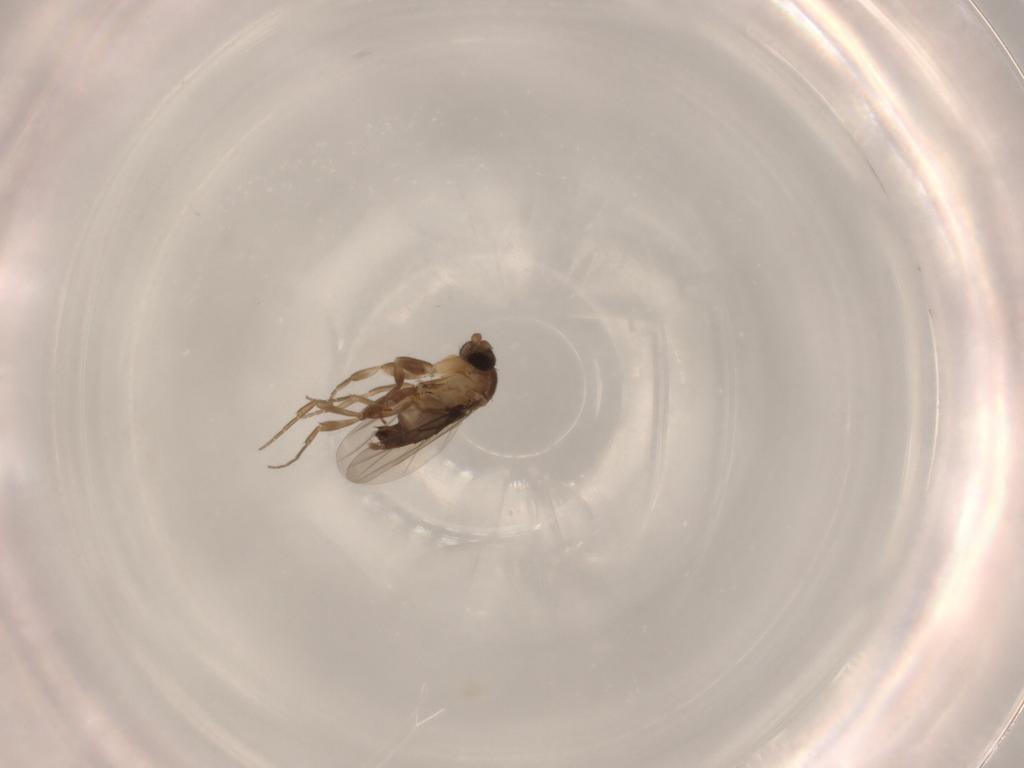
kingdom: Animalia
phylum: Arthropoda
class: Insecta
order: Diptera
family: Phoridae
